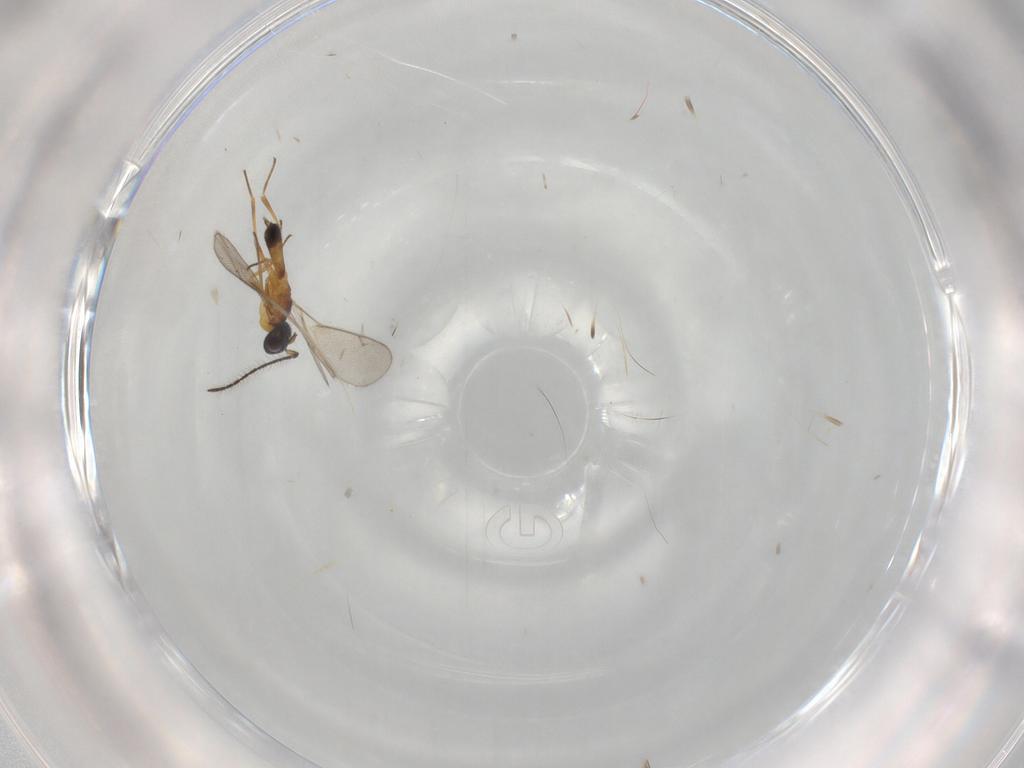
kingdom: Animalia
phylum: Arthropoda
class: Insecta
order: Hymenoptera
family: Eupelmidae
